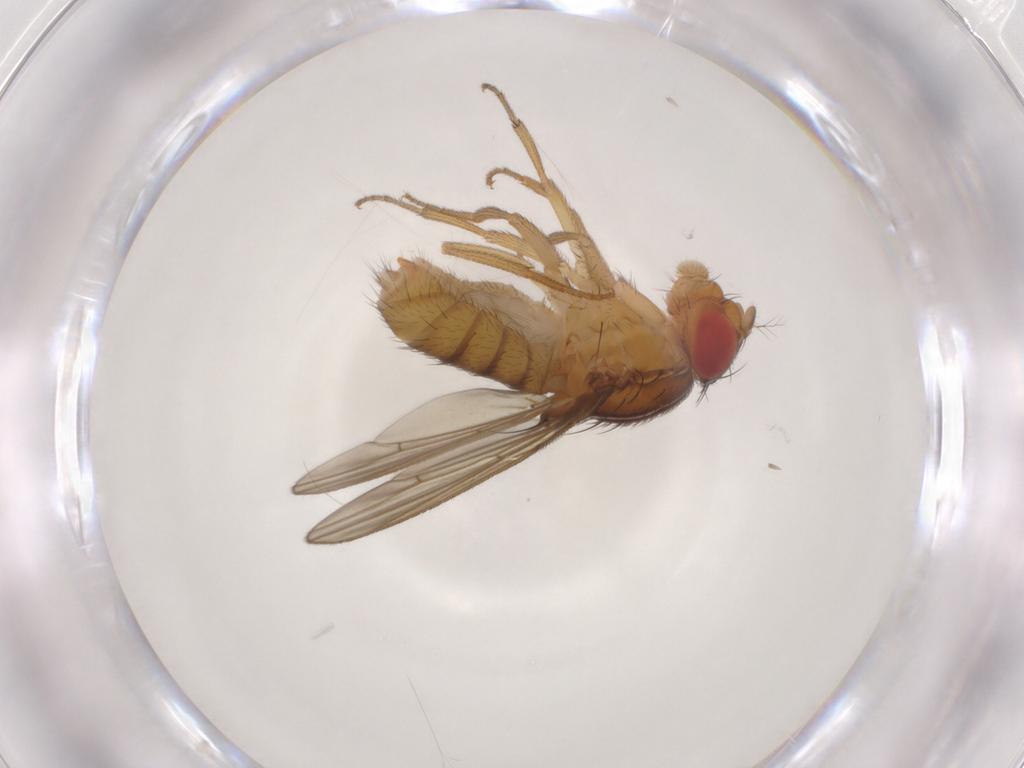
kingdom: Animalia
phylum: Arthropoda
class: Insecta
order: Diptera
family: Drosophilidae
